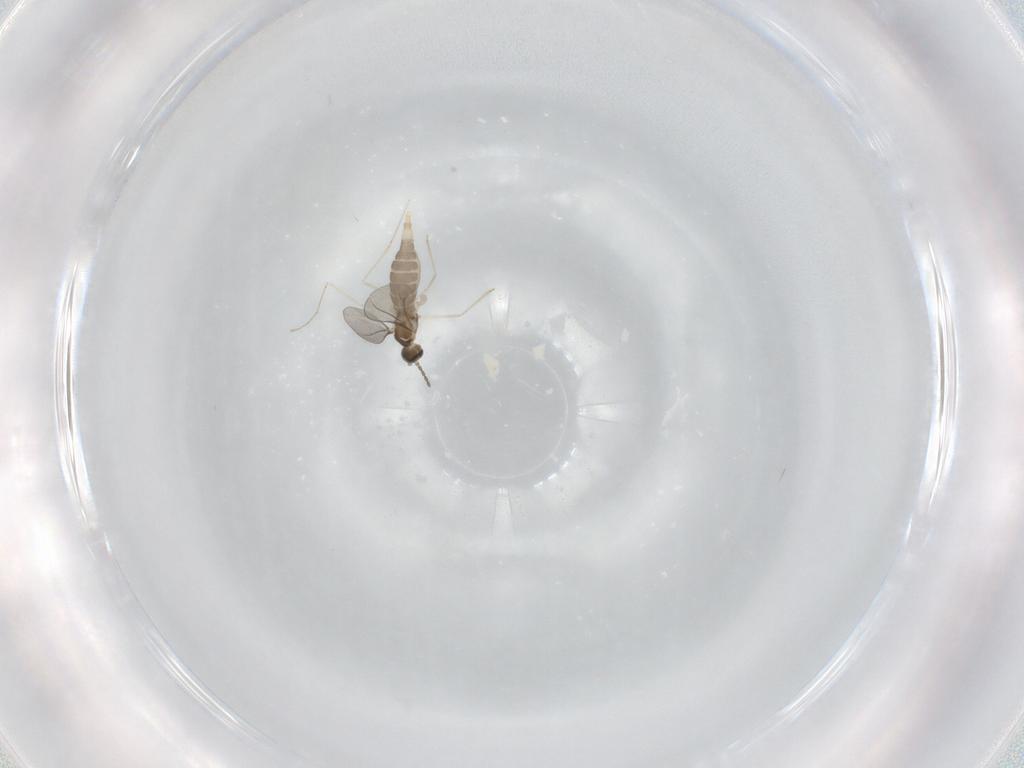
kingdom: Animalia
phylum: Arthropoda
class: Insecta
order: Diptera
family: Cecidomyiidae
